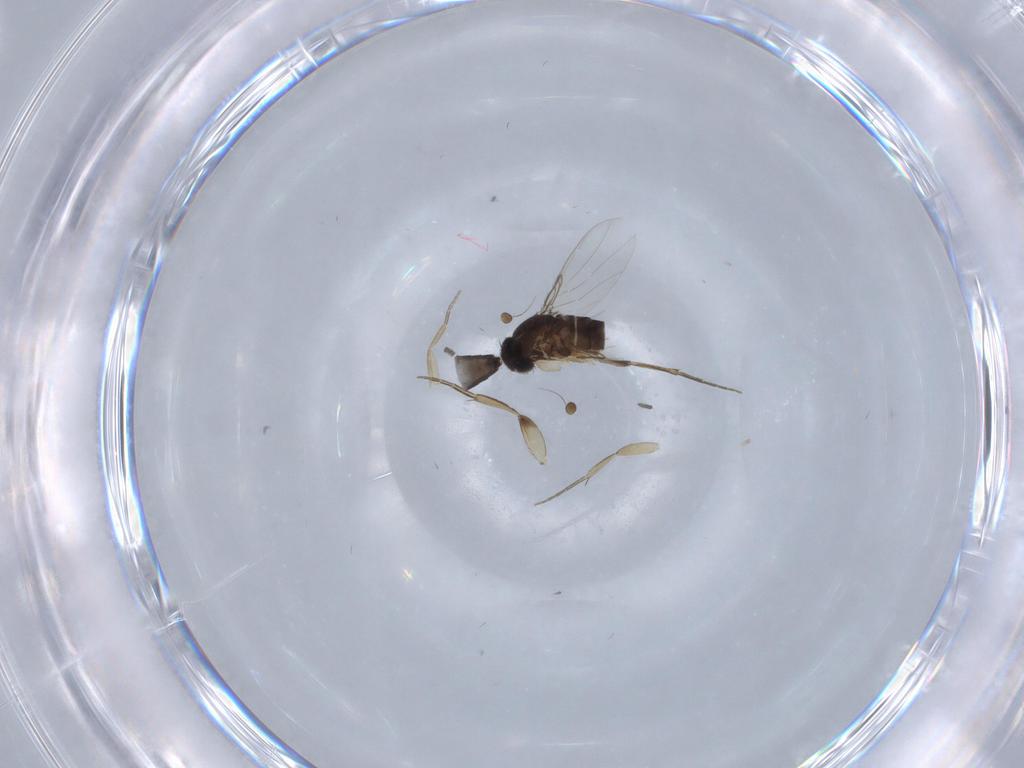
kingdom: Animalia
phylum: Arthropoda
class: Insecta
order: Diptera
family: Phoridae
